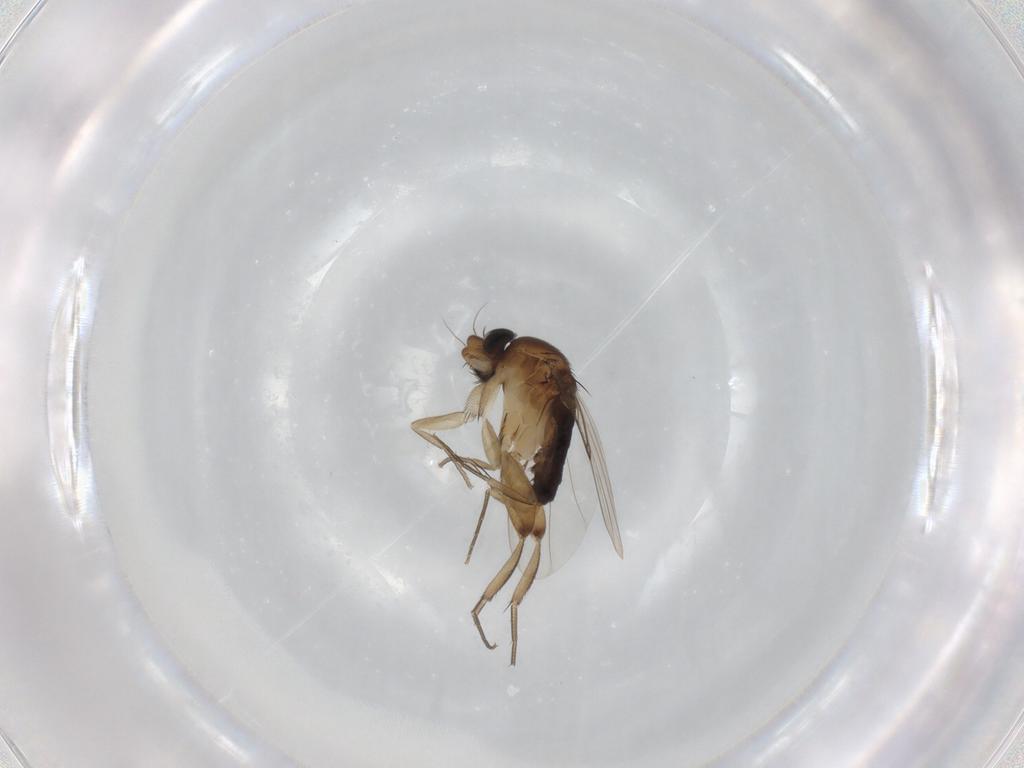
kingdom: Animalia
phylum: Arthropoda
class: Insecta
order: Diptera
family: Phoridae
